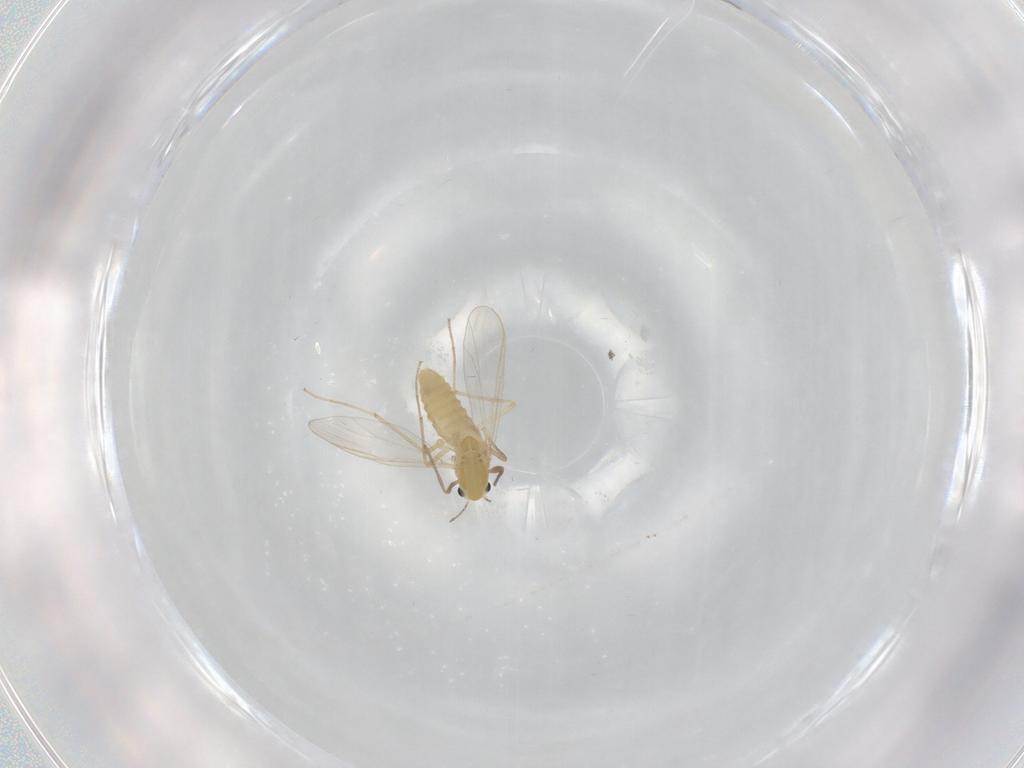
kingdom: Animalia
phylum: Arthropoda
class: Insecta
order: Diptera
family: Chironomidae
